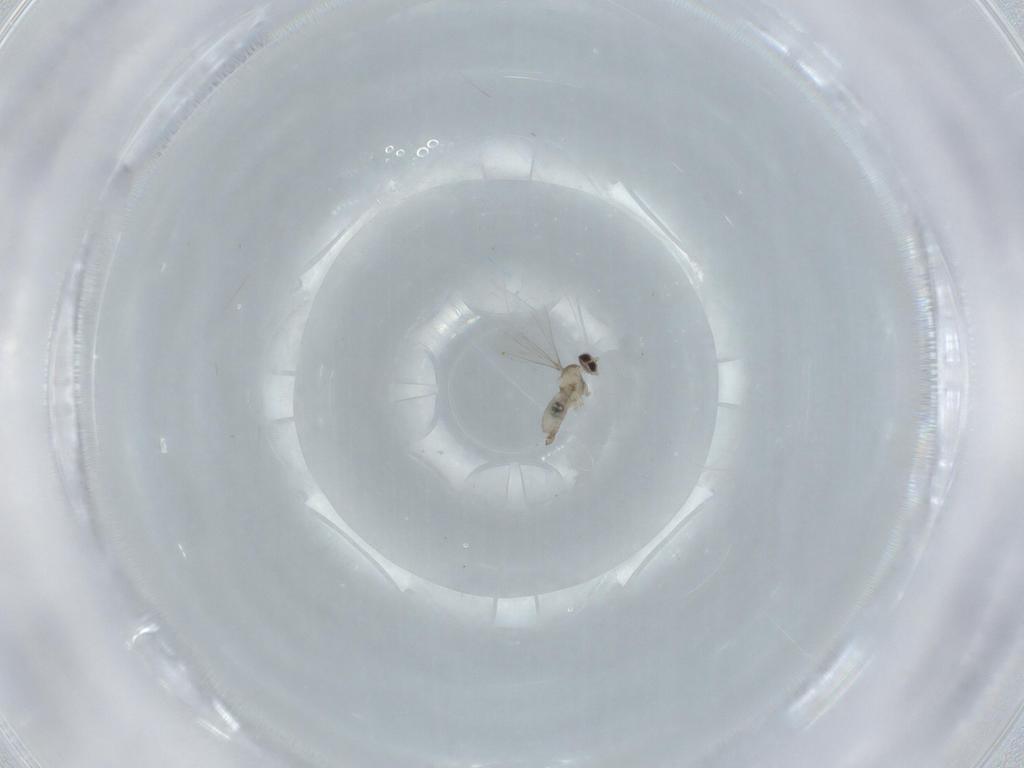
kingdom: Animalia
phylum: Arthropoda
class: Insecta
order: Diptera
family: Cecidomyiidae
